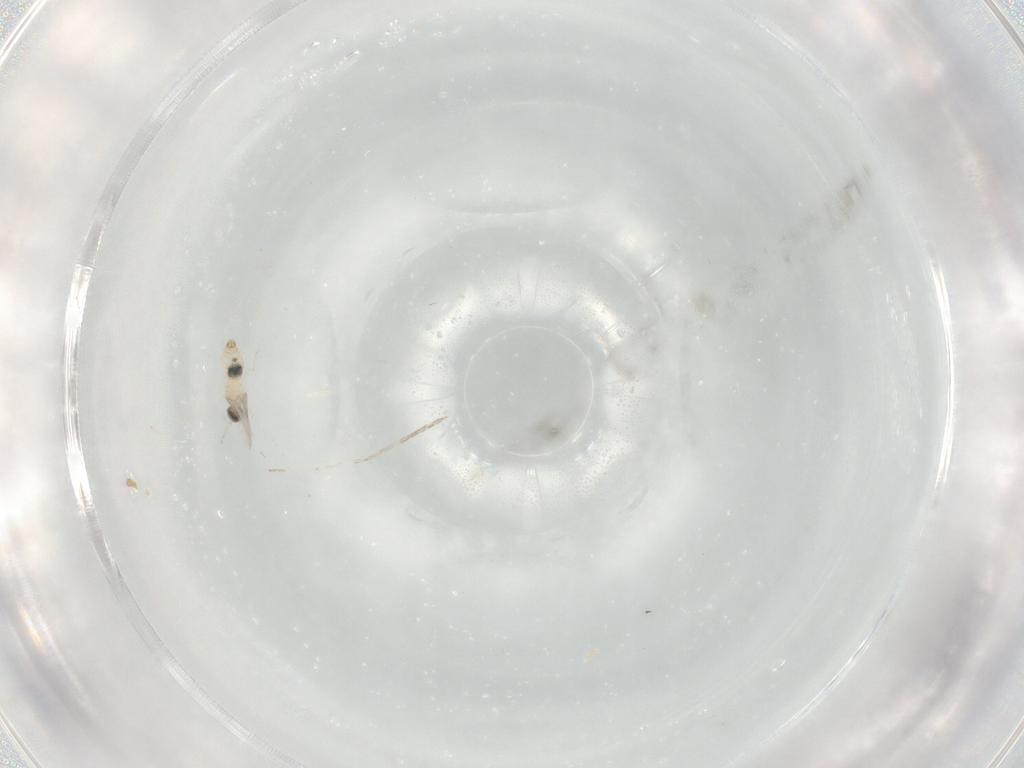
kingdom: Animalia
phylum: Arthropoda
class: Insecta
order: Diptera
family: Cecidomyiidae
